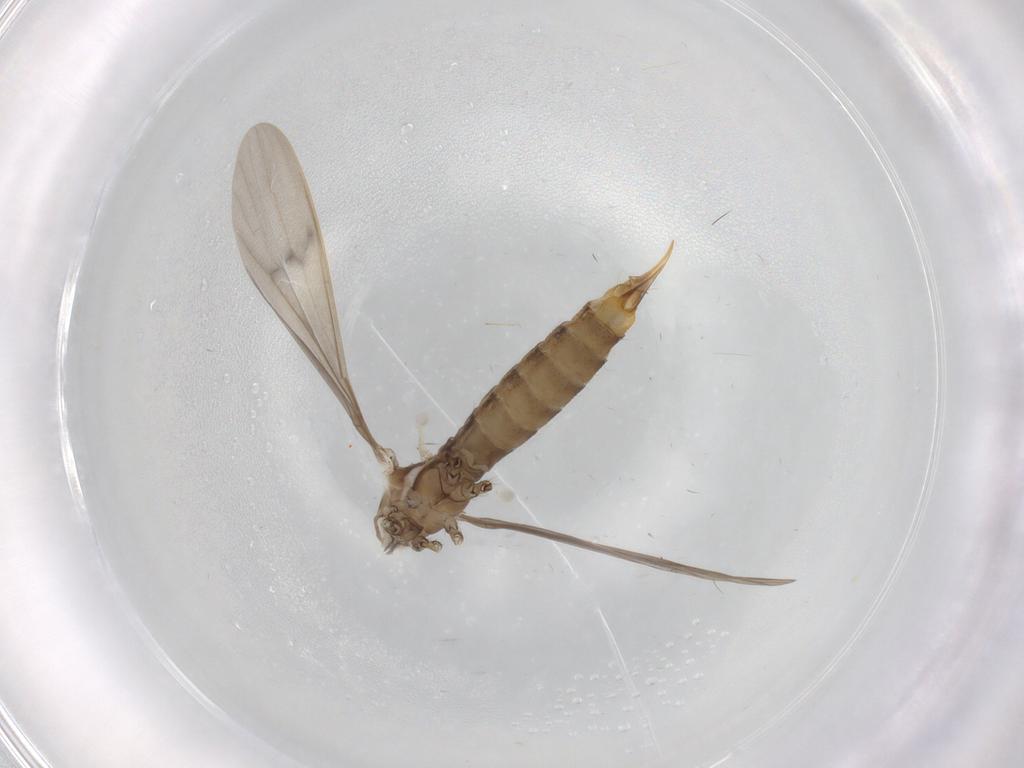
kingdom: Animalia
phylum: Arthropoda
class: Insecta
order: Diptera
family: Limoniidae
